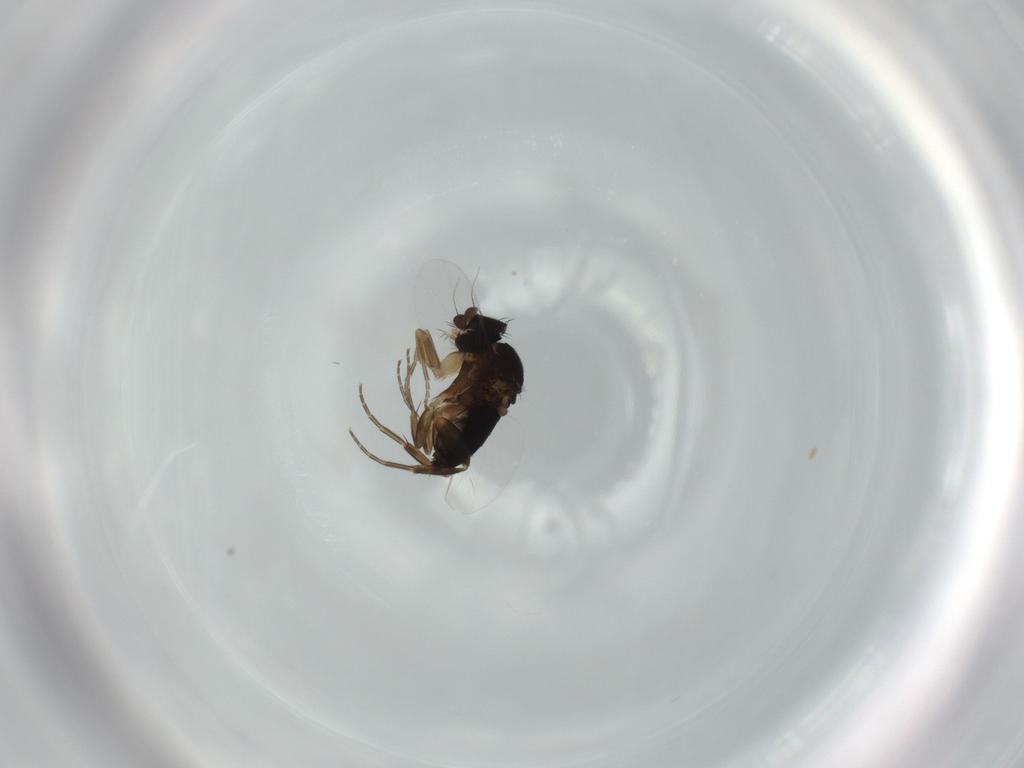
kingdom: Animalia
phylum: Arthropoda
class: Insecta
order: Diptera
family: Phoridae
